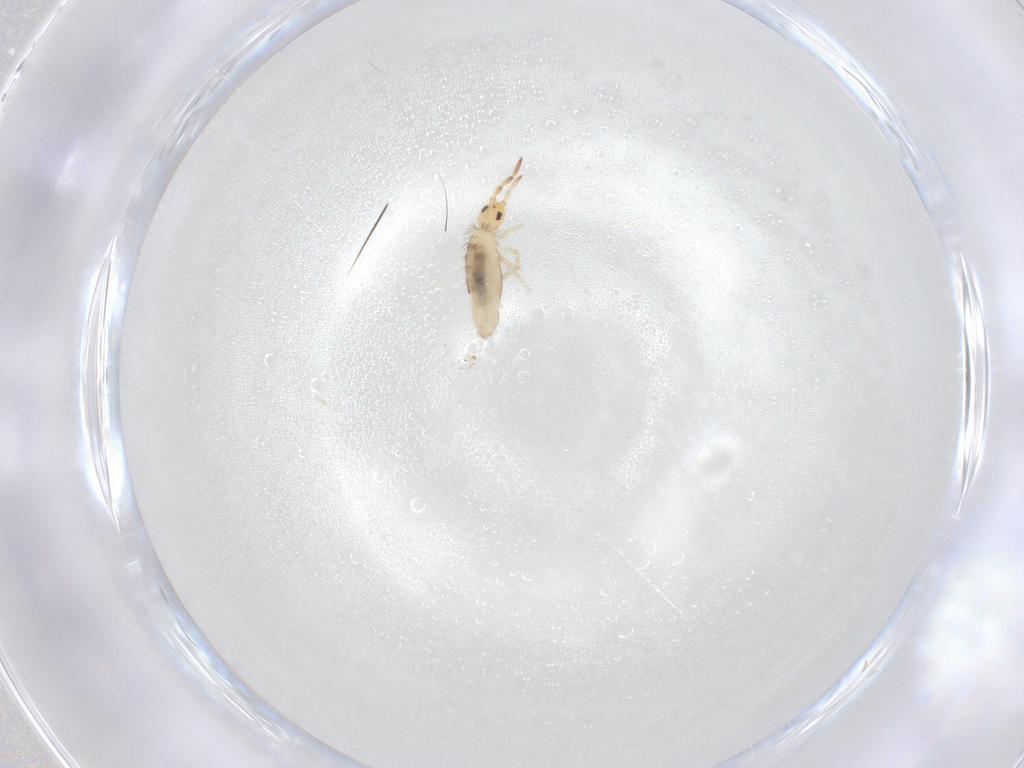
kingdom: Animalia
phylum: Arthropoda
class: Collembola
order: Entomobryomorpha
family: Entomobryidae
